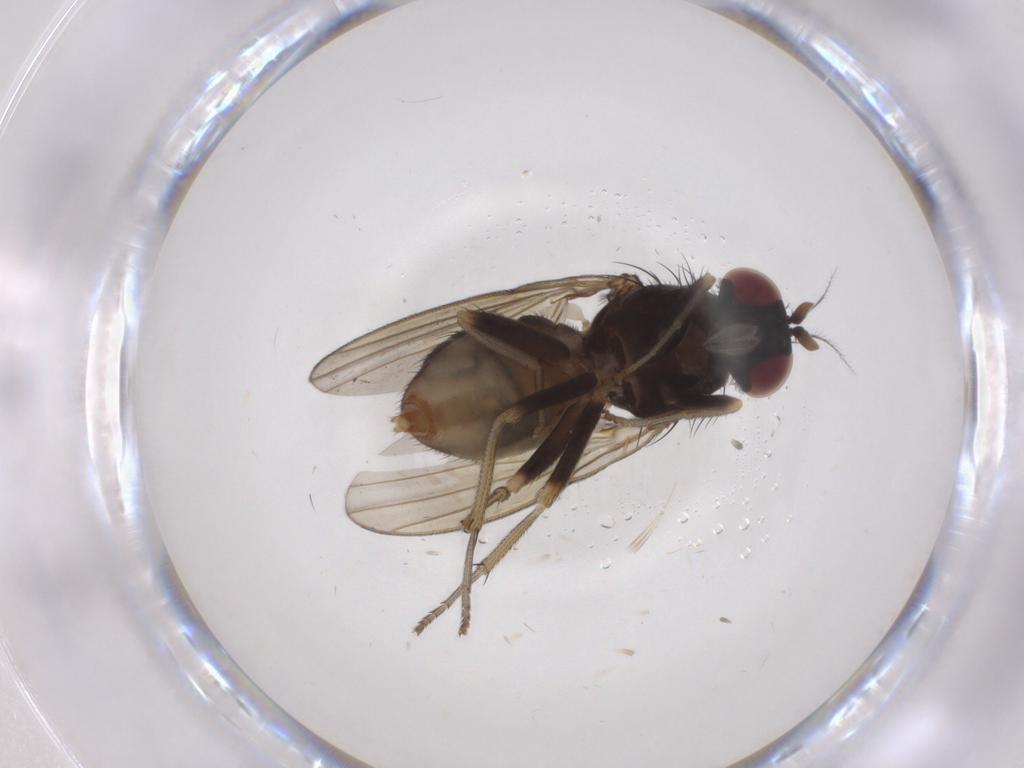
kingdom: Animalia
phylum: Arthropoda
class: Insecta
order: Diptera
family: Lauxaniidae
